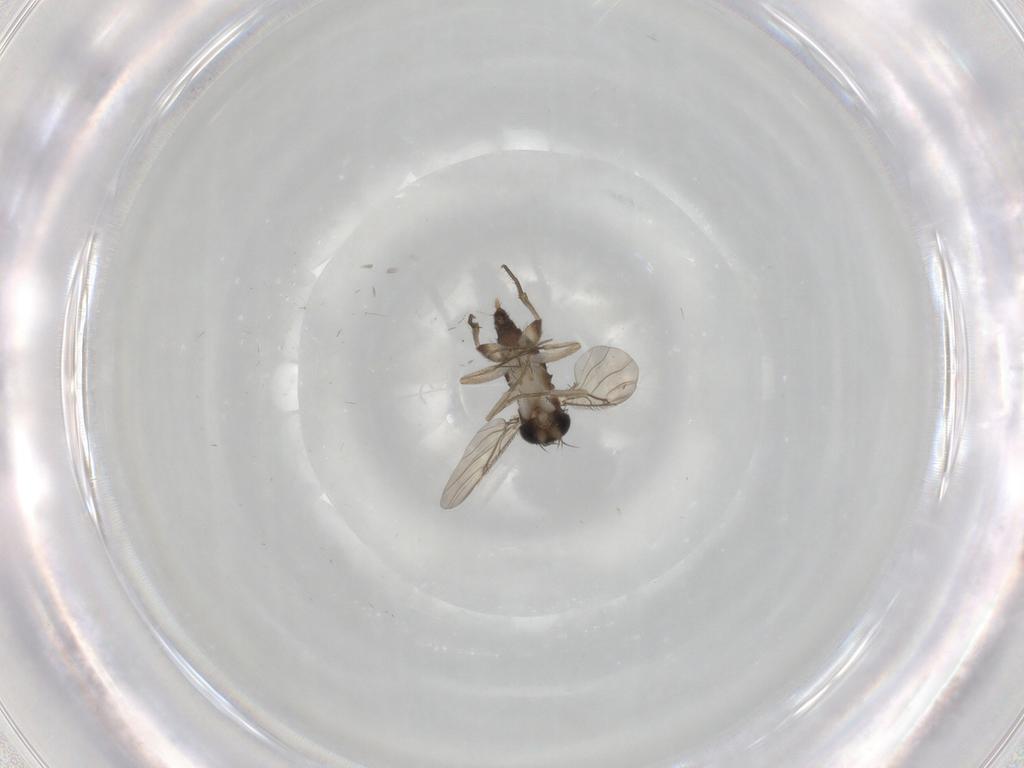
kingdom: Animalia
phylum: Arthropoda
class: Insecta
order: Diptera
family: Phoridae
